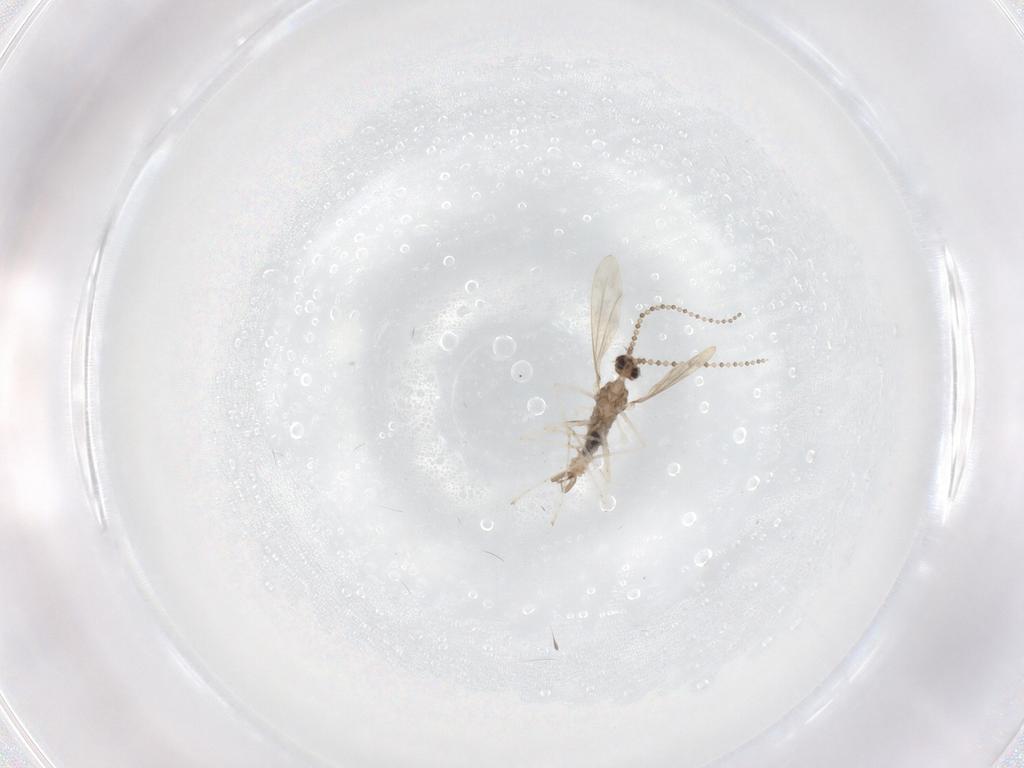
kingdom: Animalia
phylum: Arthropoda
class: Insecta
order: Diptera
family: Cecidomyiidae
